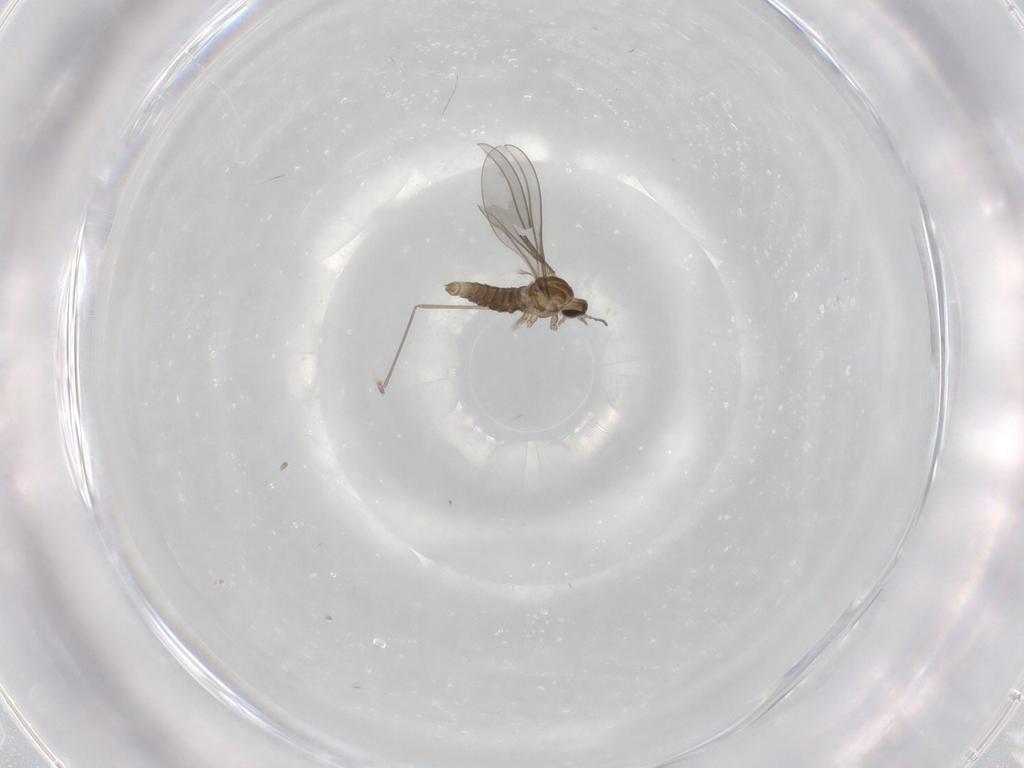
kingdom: Animalia
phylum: Arthropoda
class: Insecta
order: Diptera
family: Cecidomyiidae
